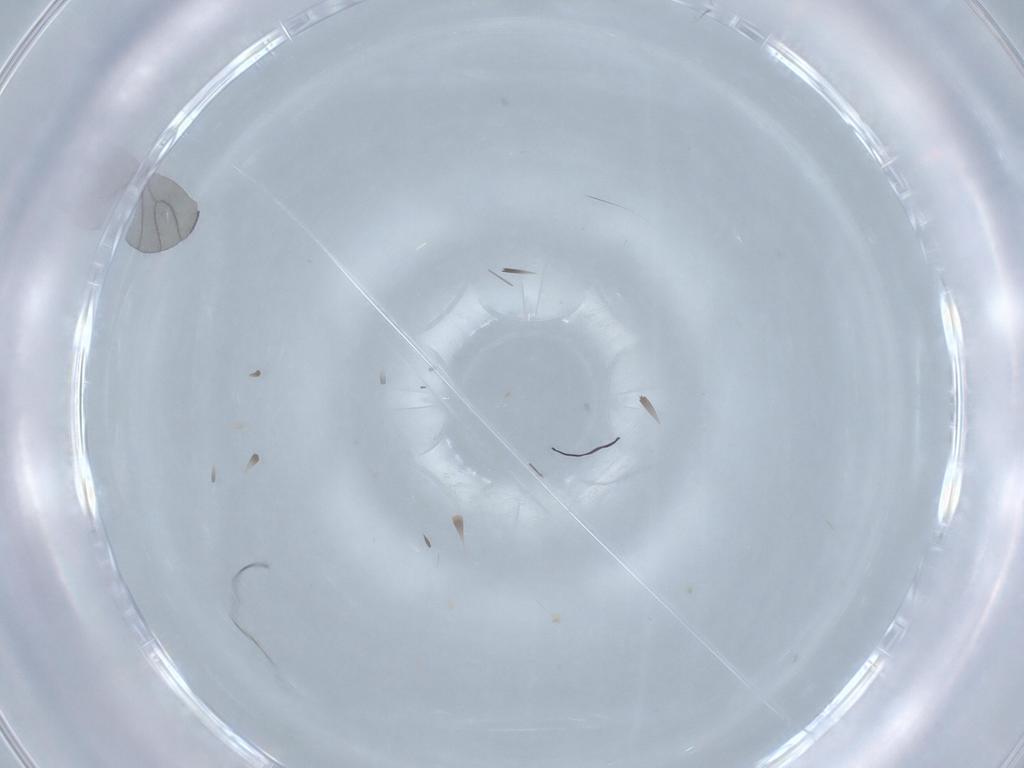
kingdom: Animalia
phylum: Arthropoda
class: Insecta
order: Diptera
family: Sciaridae
